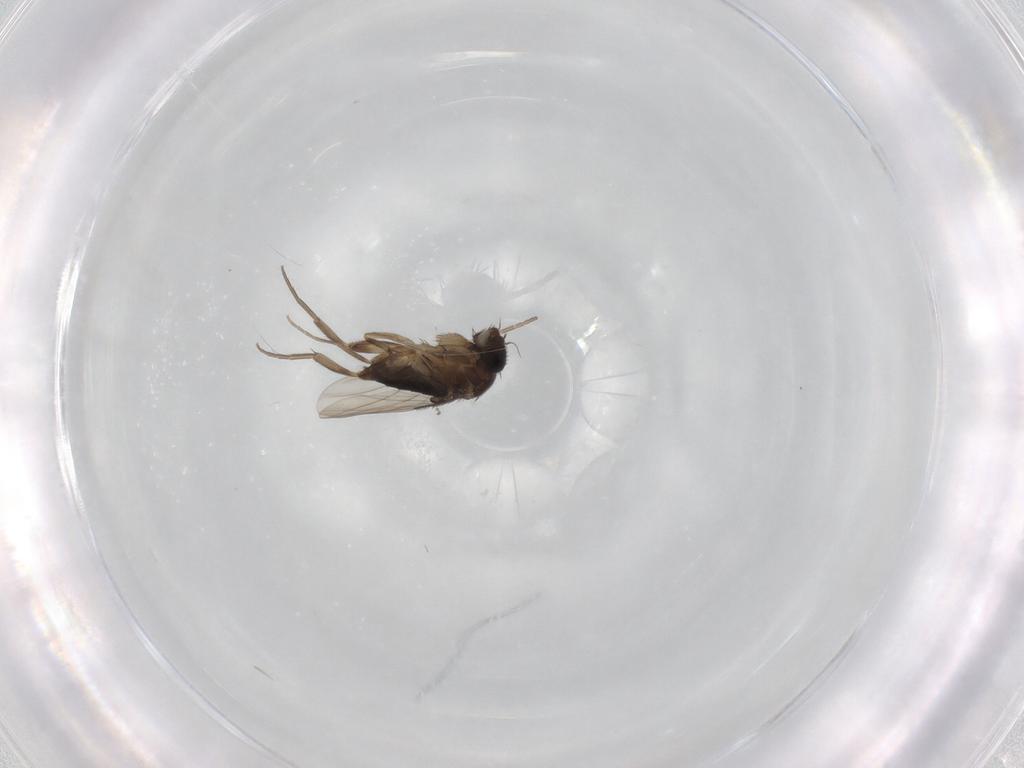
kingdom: Animalia
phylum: Arthropoda
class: Insecta
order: Diptera
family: Phoridae
